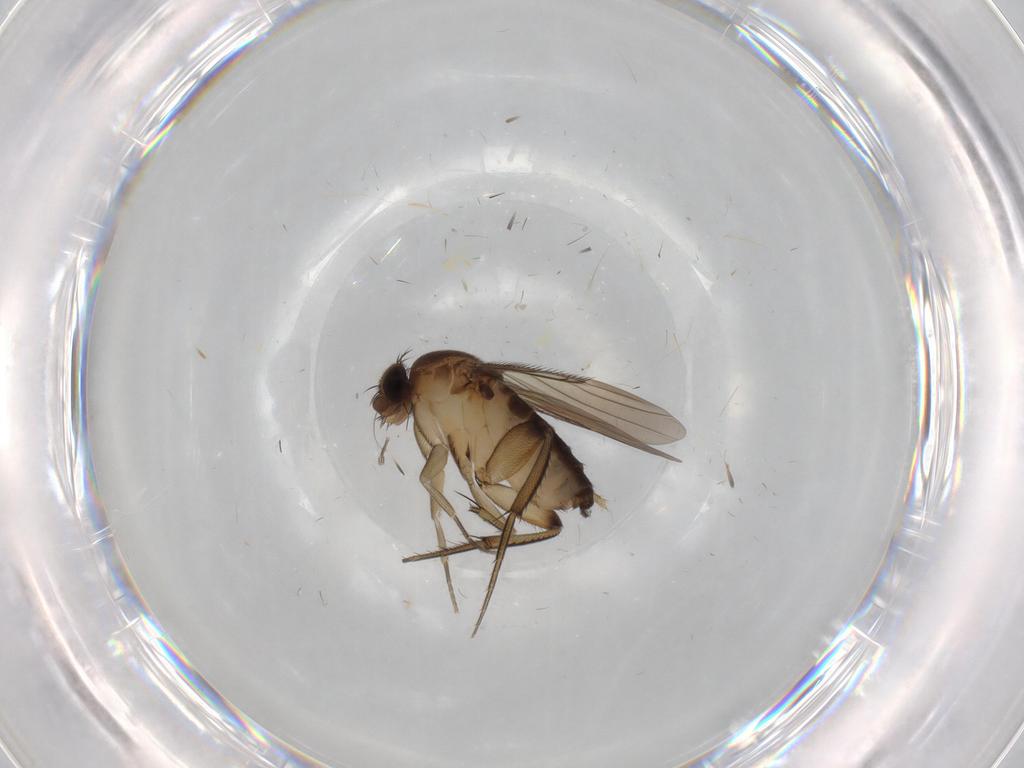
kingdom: Animalia
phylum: Arthropoda
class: Insecta
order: Diptera
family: Phoridae
